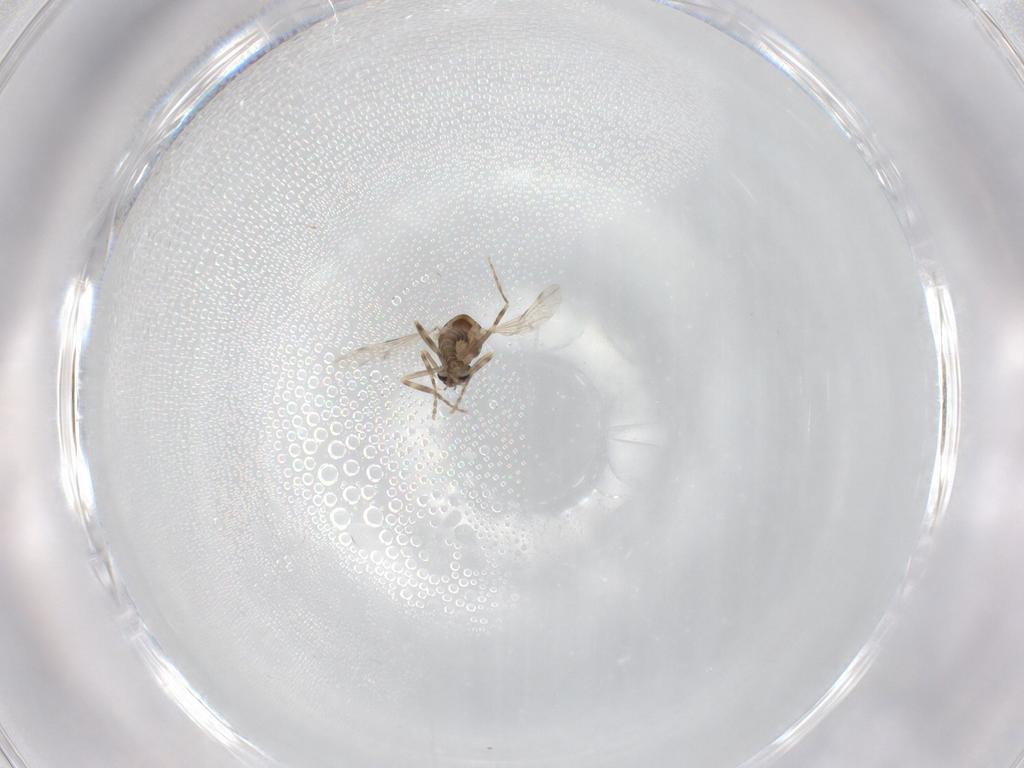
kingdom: Animalia
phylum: Arthropoda
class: Insecta
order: Diptera
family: Ceratopogonidae
